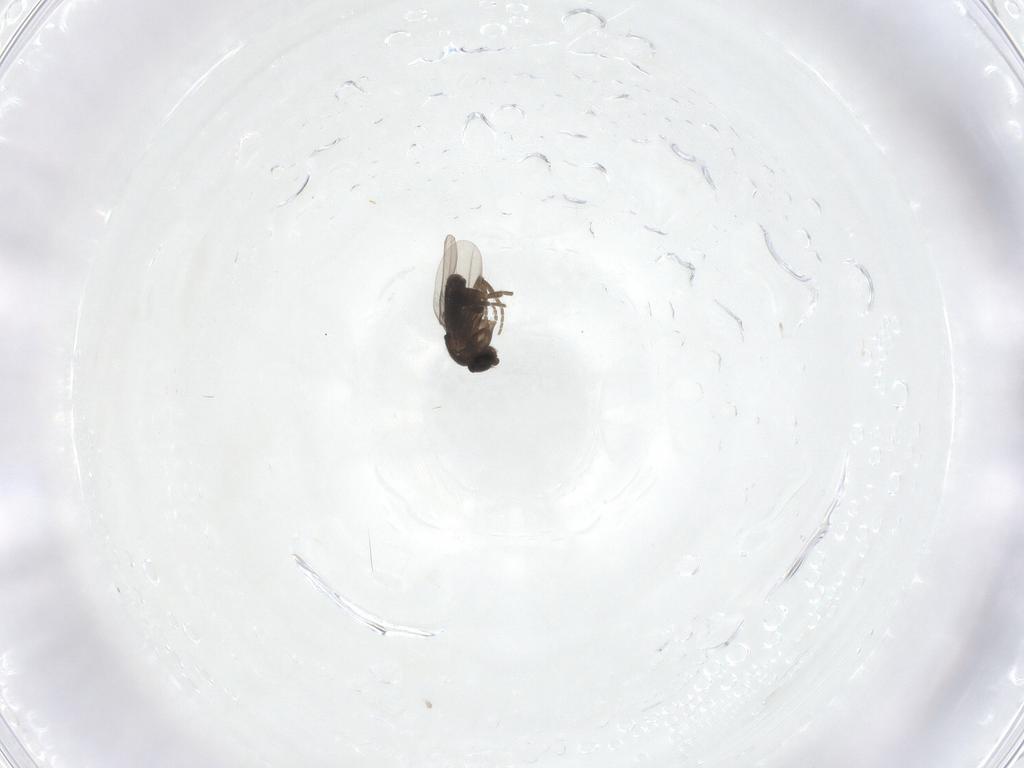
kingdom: Animalia
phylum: Arthropoda
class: Insecta
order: Diptera
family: Phoridae
